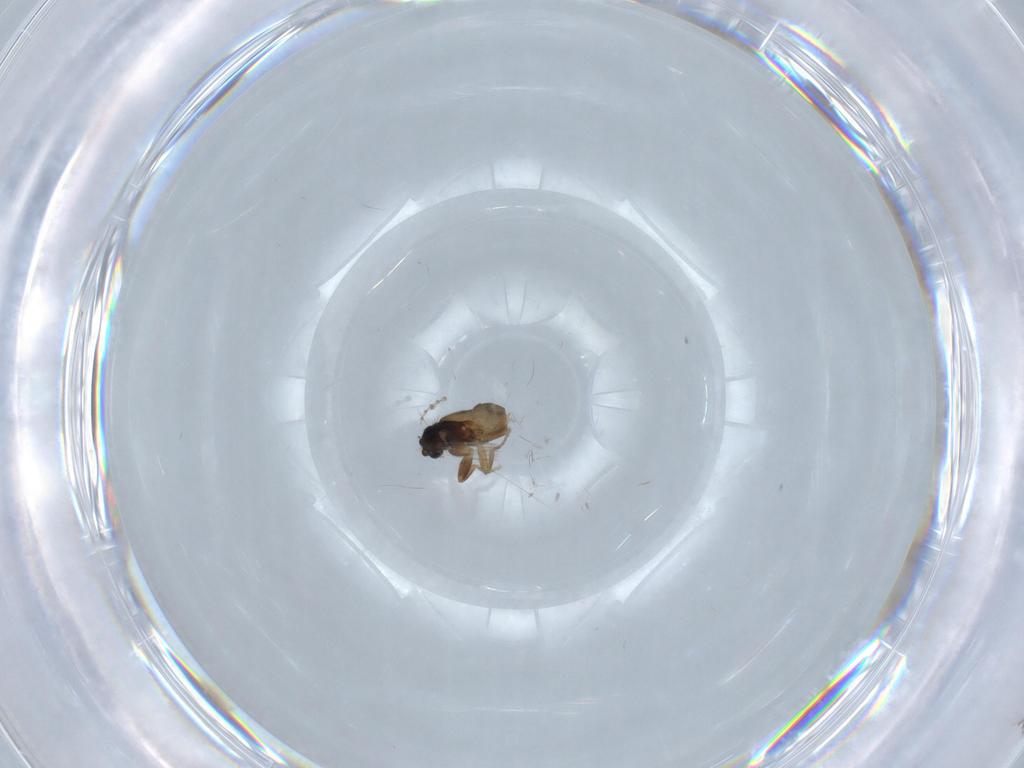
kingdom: Animalia
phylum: Arthropoda
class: Insecta
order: Diptera
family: Phoridae
